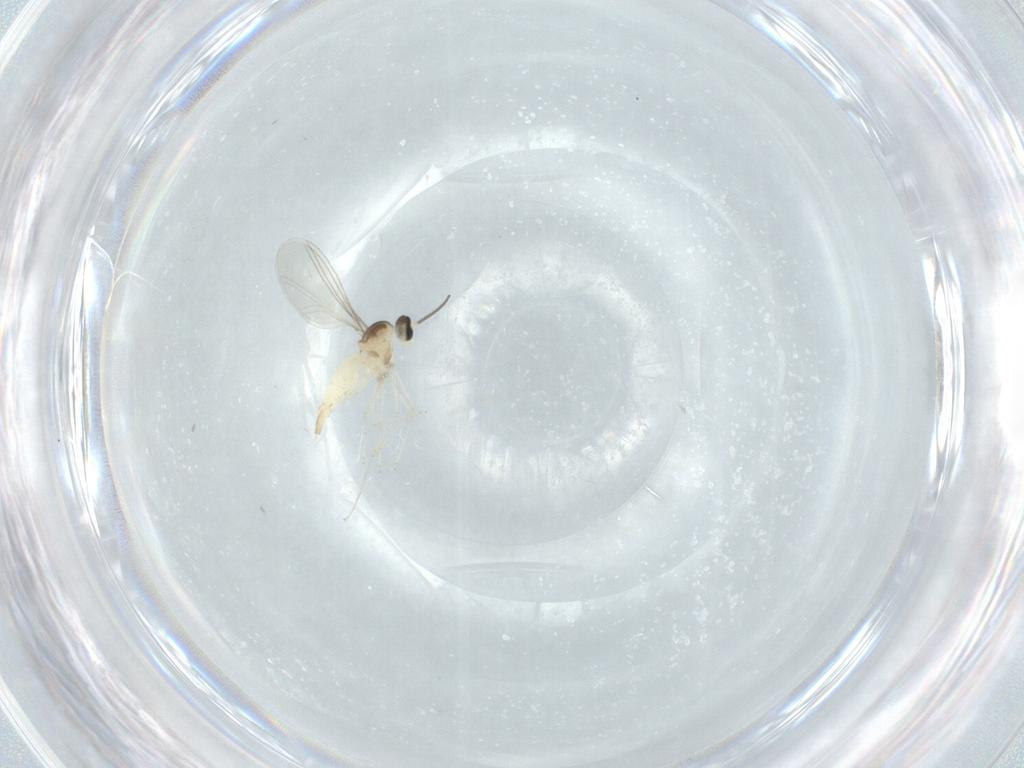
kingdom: Animalia
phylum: Arthropoda
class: Insecta
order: Diptera
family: Cecidomyiidae
